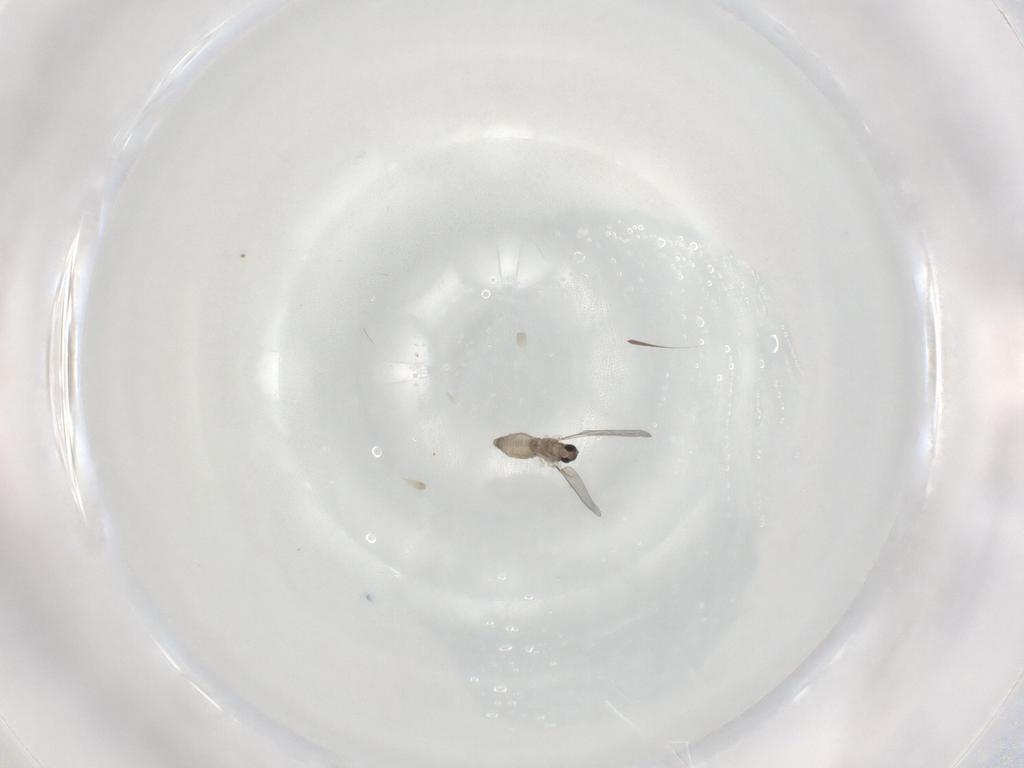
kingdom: Animalia
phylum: Arthropoda
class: Insecta
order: Diptera
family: Cecidomyiidae
